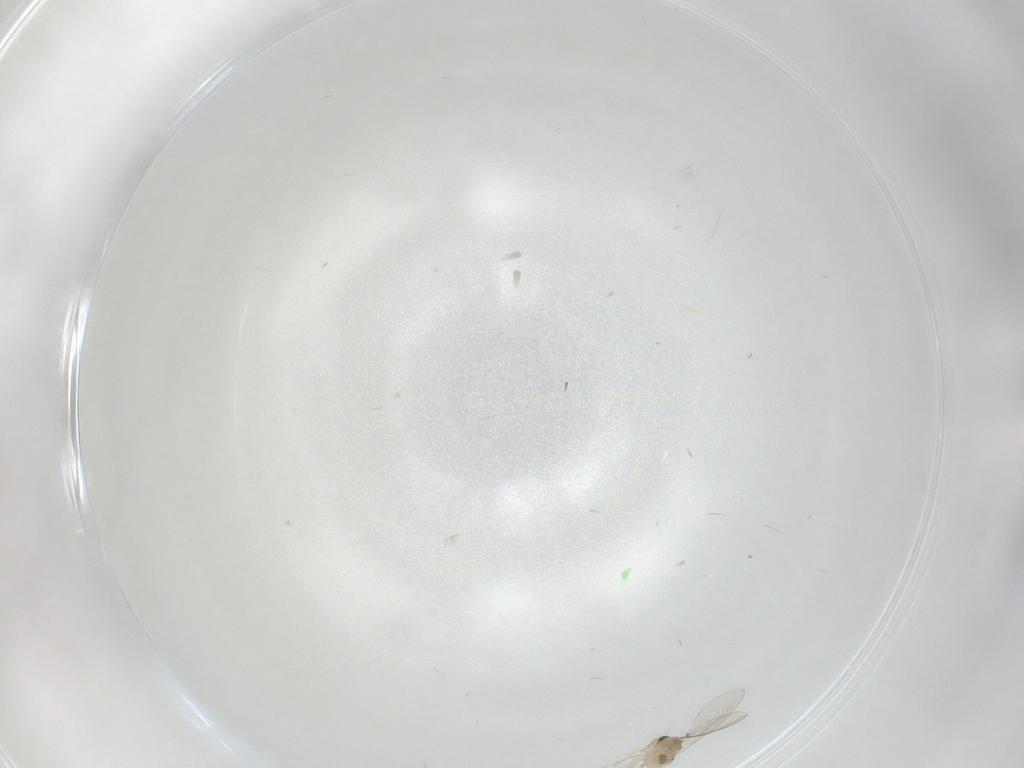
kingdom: Animalia
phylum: Arthropoda
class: Insecta
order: Diptera
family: Cecidomyiidae
